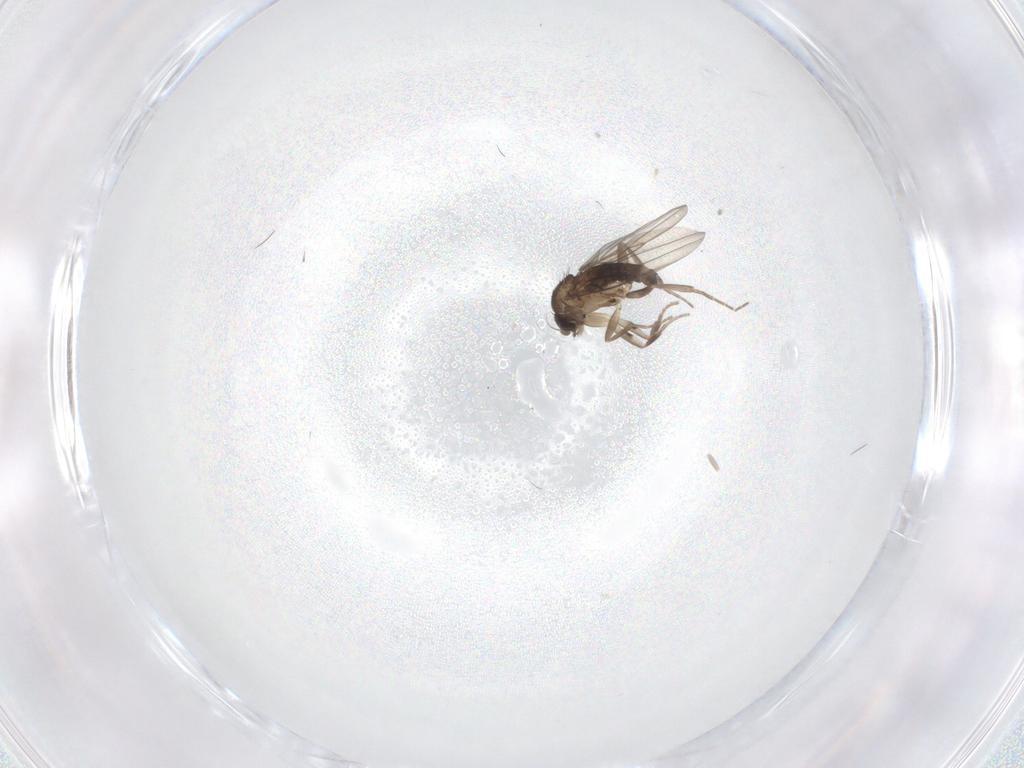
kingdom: Animalia
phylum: Arthropoda
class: Insecta
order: Diptera
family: Phoridae
